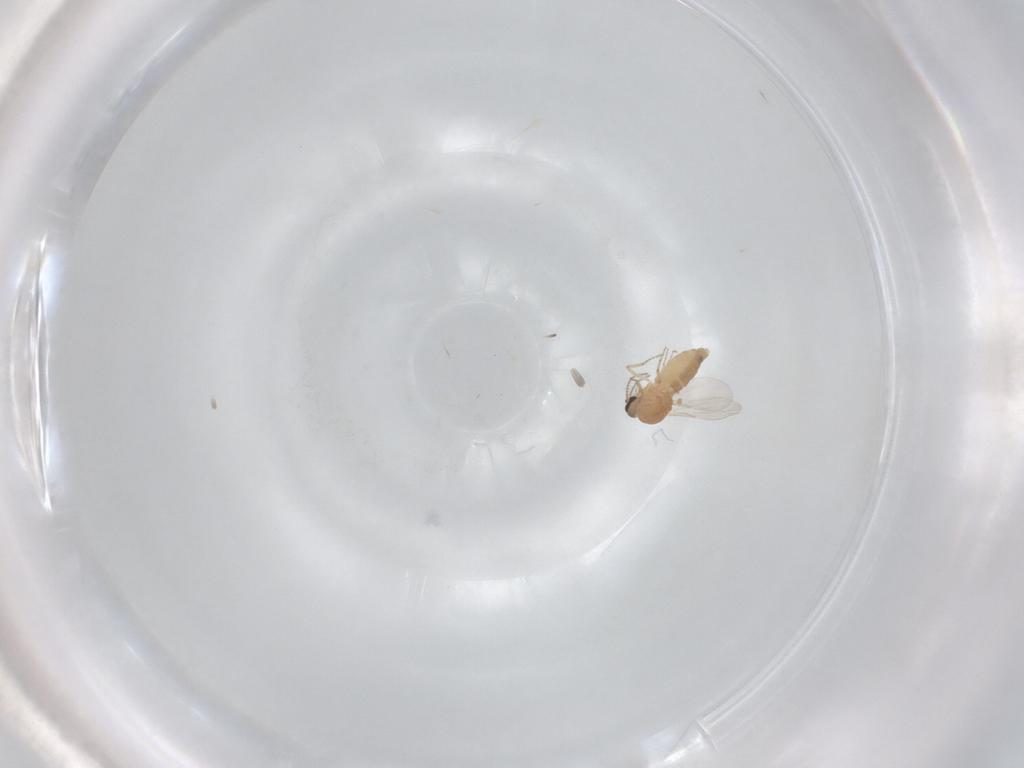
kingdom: Animalia
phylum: Arthropoda
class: Insecta
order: Diptera
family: Ceratopogonidae
